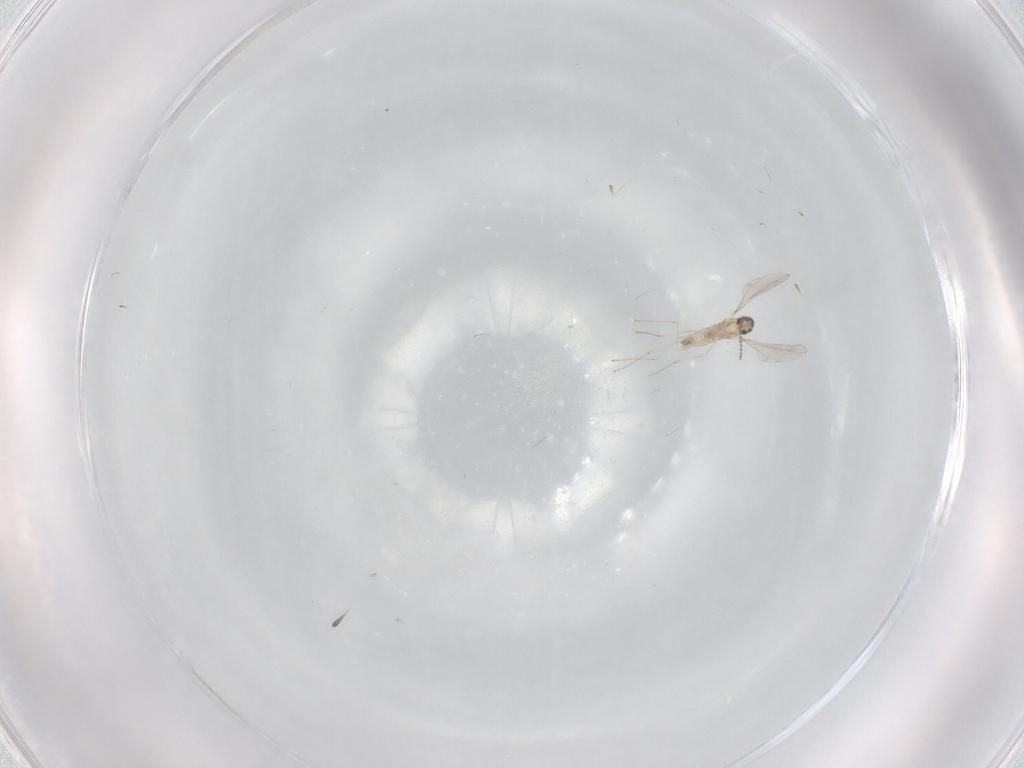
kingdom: Animalia
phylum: Arthropoda
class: Insecta
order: Diptera
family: Cecidomyiidae
